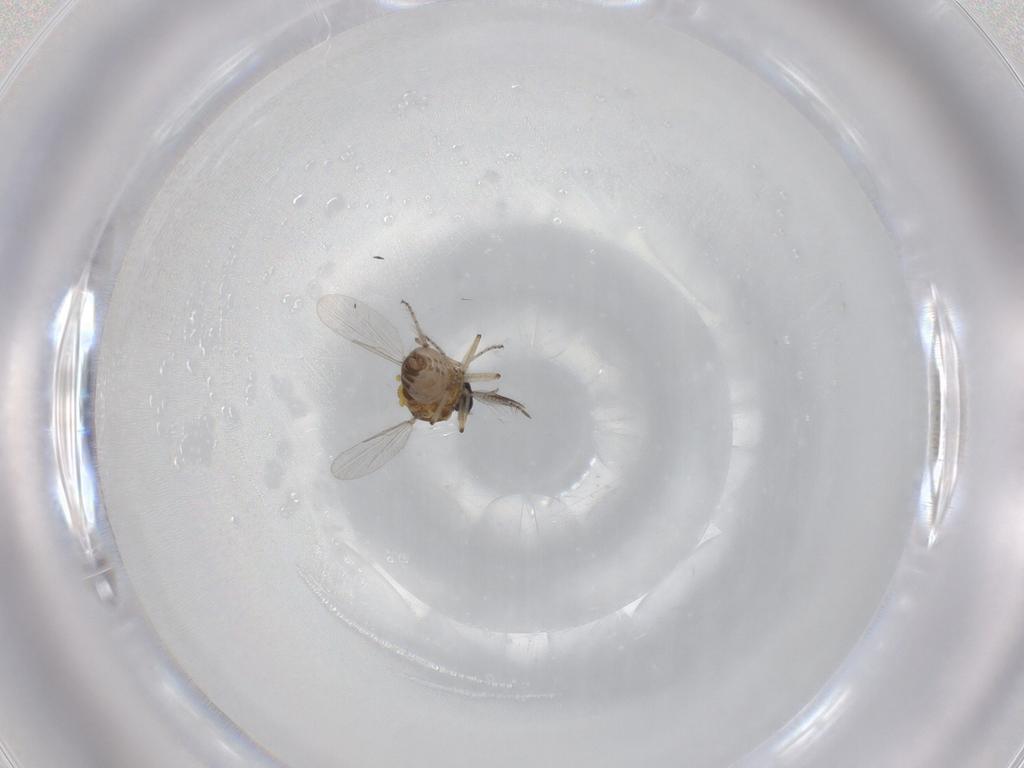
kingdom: Animalia
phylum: Arthropoda
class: Insecta
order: Diptera
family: Ceratopogonidae
